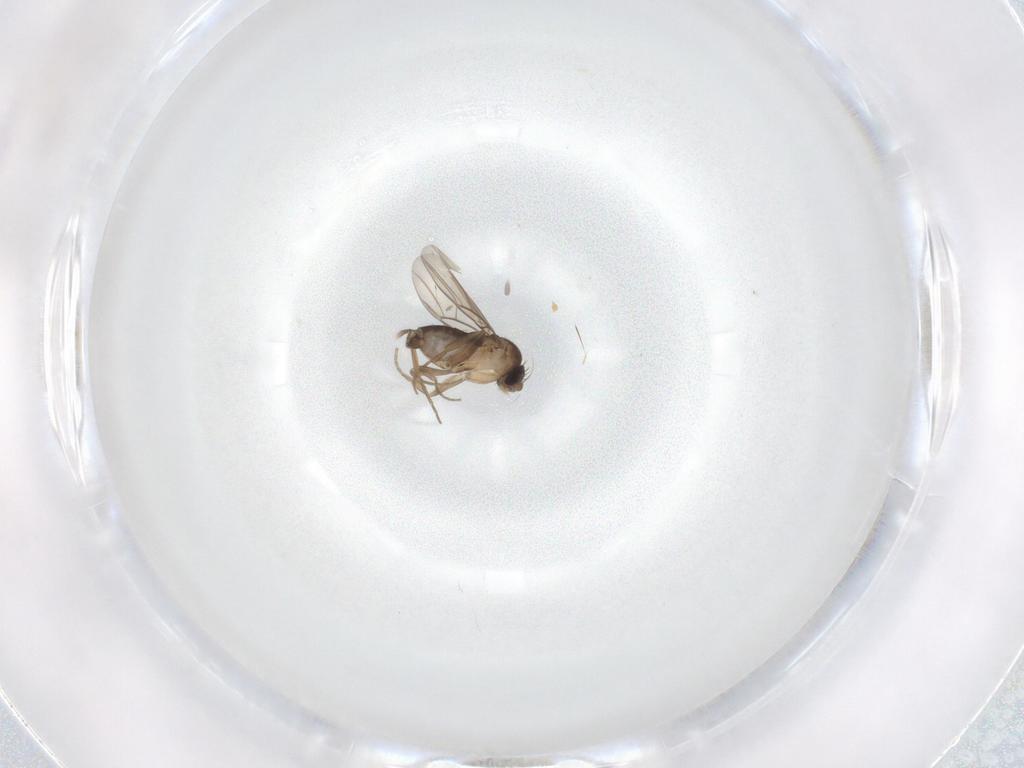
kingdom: Animalia
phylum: Arthropoda
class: Insecta
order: Diptera
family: Phoridae
